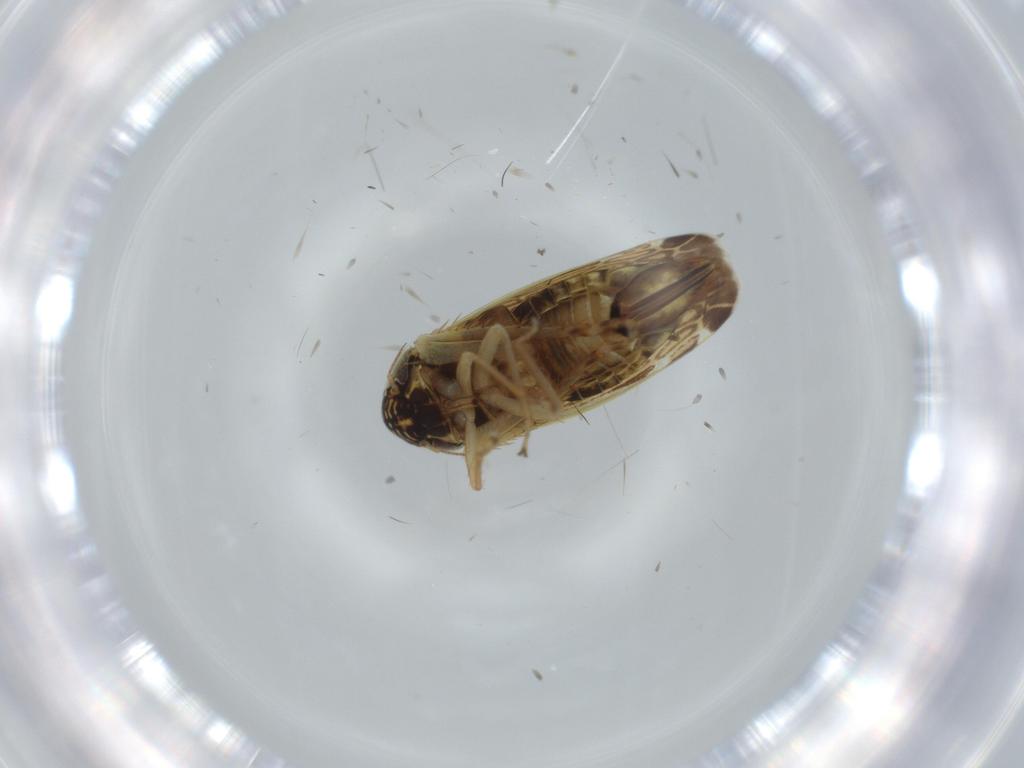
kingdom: Animalia
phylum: Arthropoda
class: Insecta
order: Hemiptera
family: Cicadellidae
